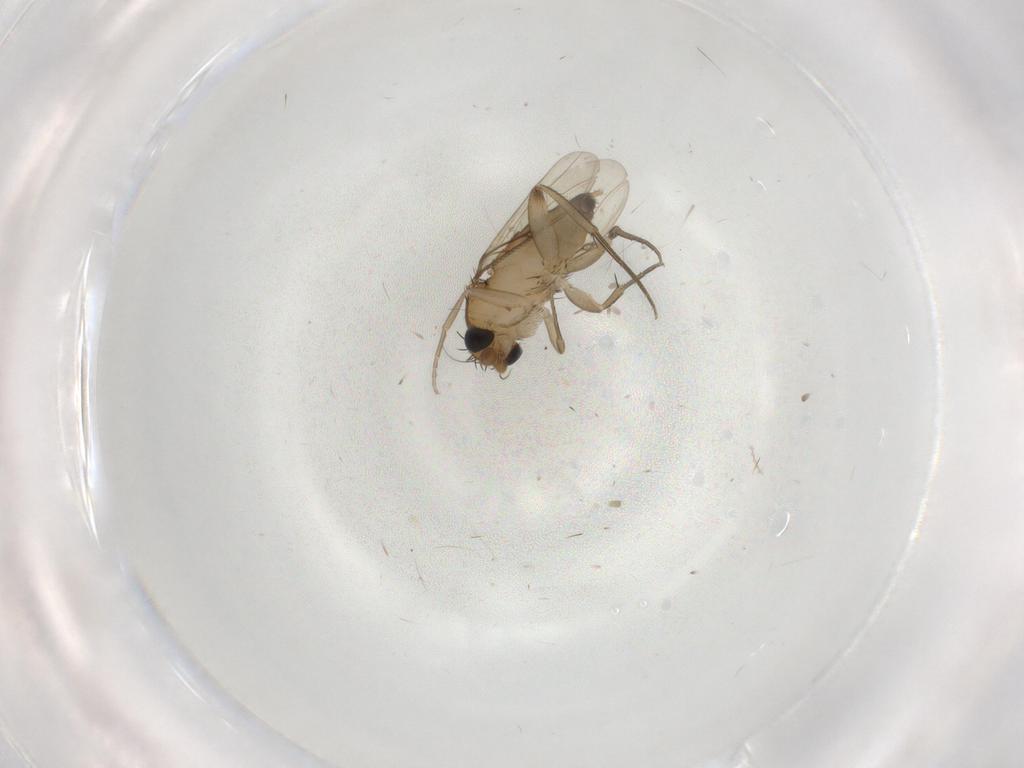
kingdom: Animalia
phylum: Arthropoda
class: Insecta
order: Diptera
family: Phoridae
